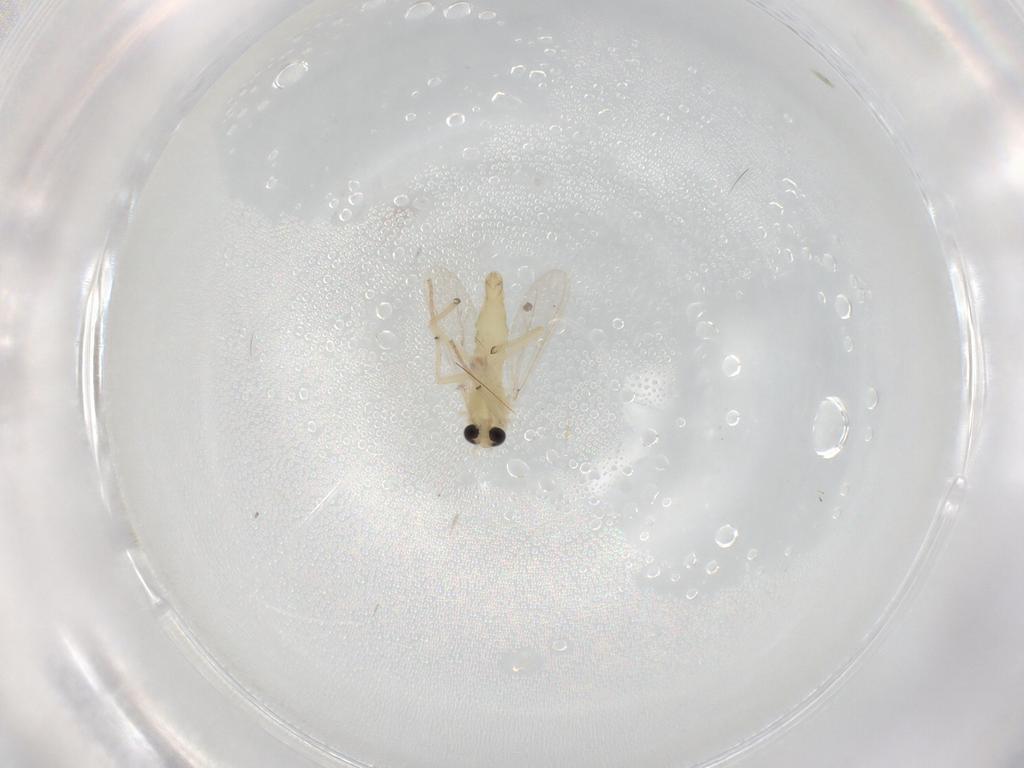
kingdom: Animalia
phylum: Arthropoda
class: Insecta
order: Diptera
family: Chironomidae
